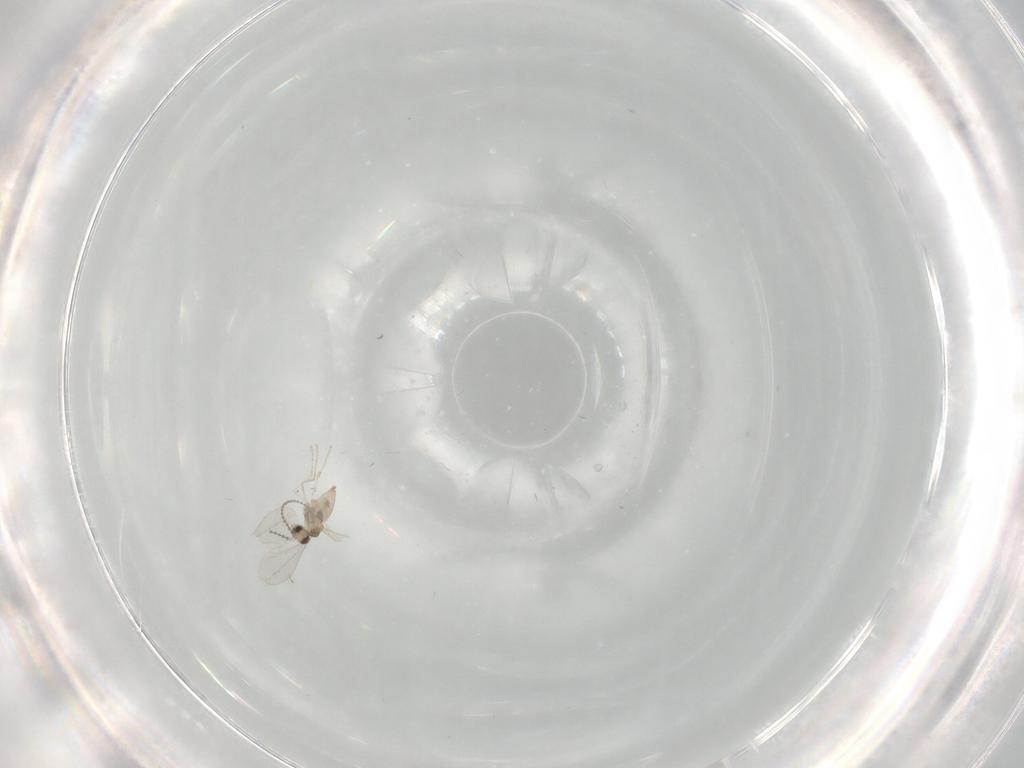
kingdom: Animalia
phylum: Arthropoda
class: Insecta
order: Diptera
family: Cecidomyiidae
